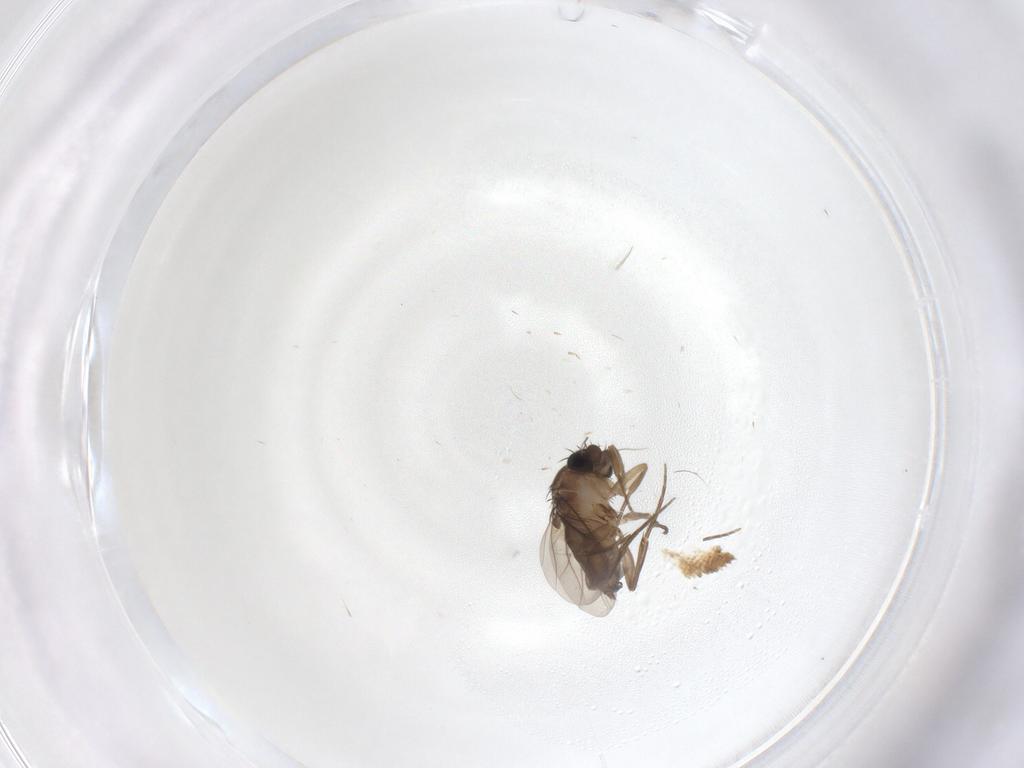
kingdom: Animalia
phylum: Arthropoda
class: Insecta
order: Diptera
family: Phoridae
